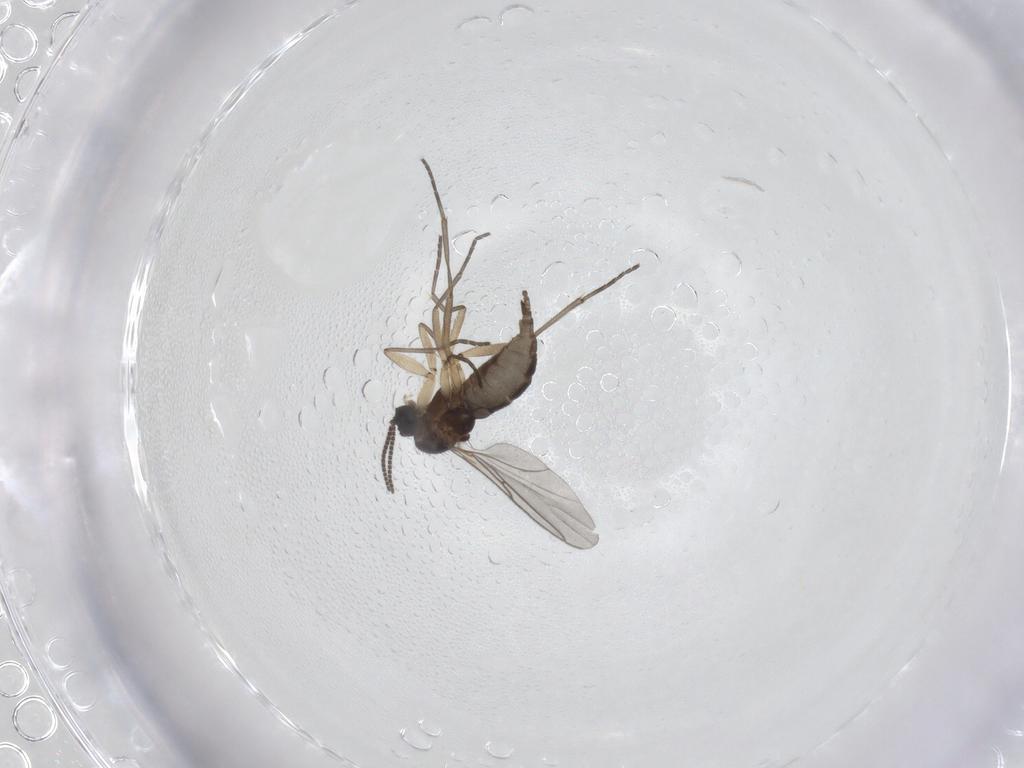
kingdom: Animalia
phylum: Arthropoda
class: Insecta
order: Diptera
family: Sciaridae
